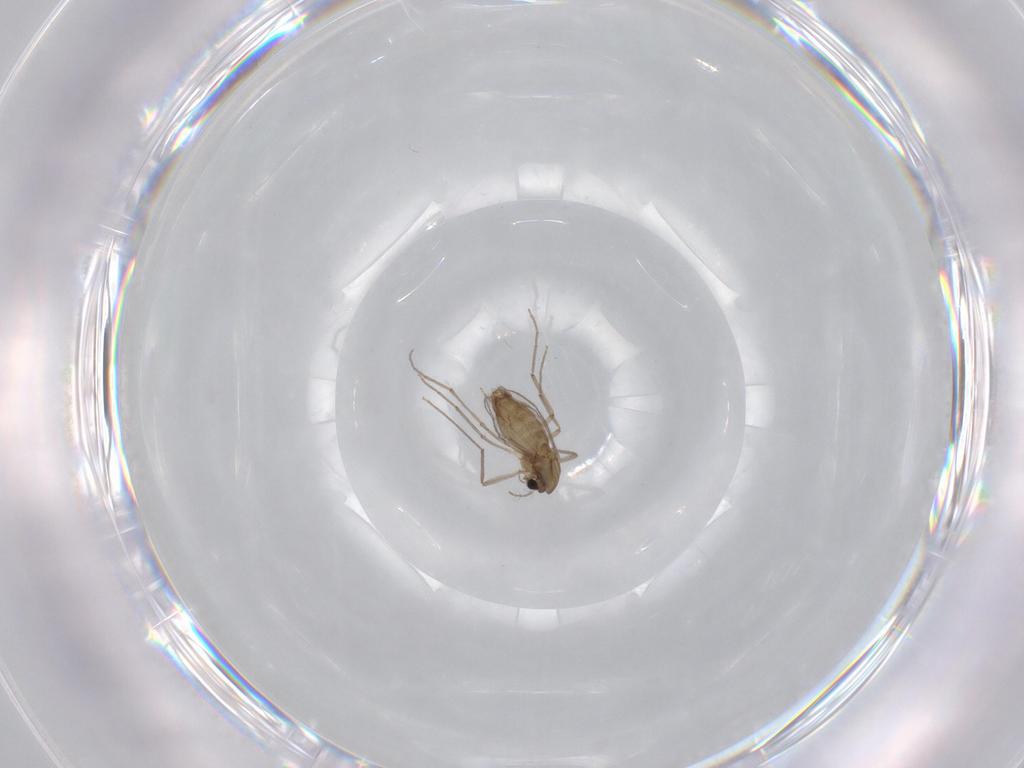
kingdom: Animalia
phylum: Arthropoda
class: Insecta
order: Diptera
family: Chironomidae
